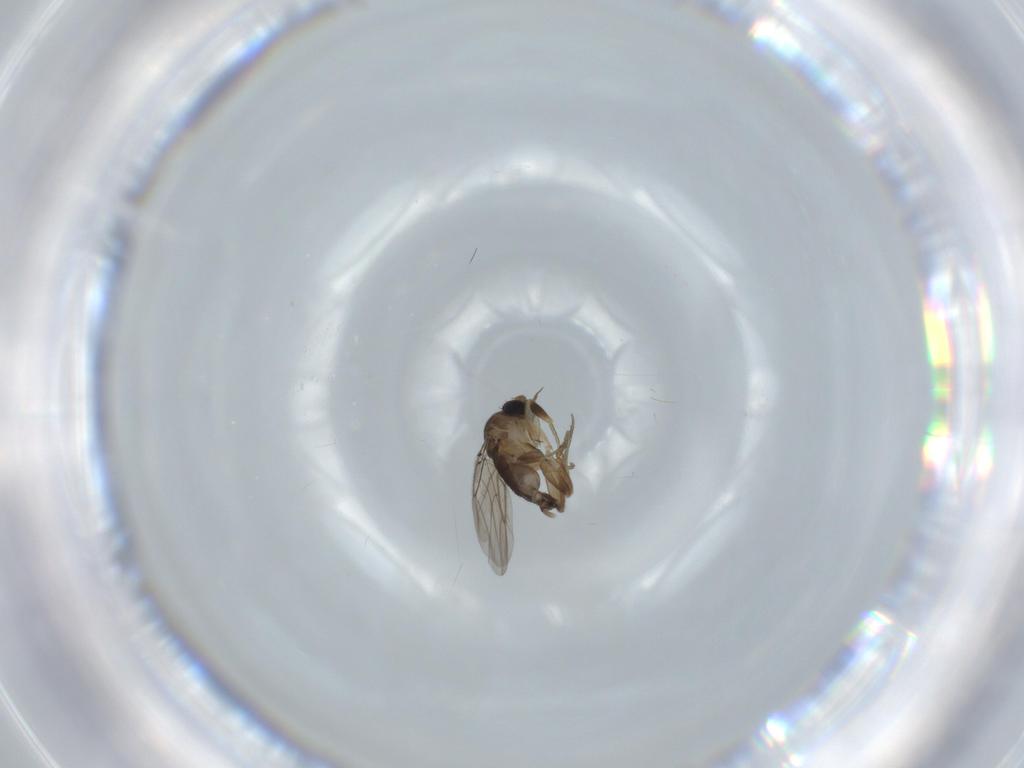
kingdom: Animalia
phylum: Arthropoda
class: Insecta
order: Diptera
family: Phoridae
